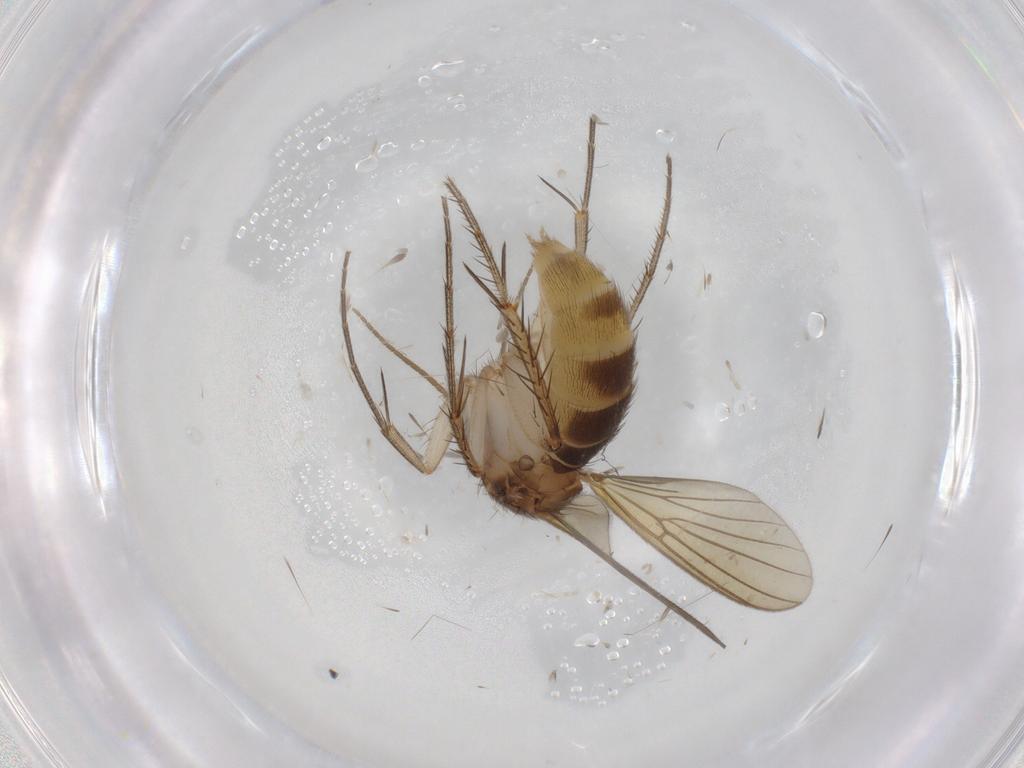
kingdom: Animalia
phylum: Arthropoda
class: Insecta
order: Diptera
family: Mycetophilidae
